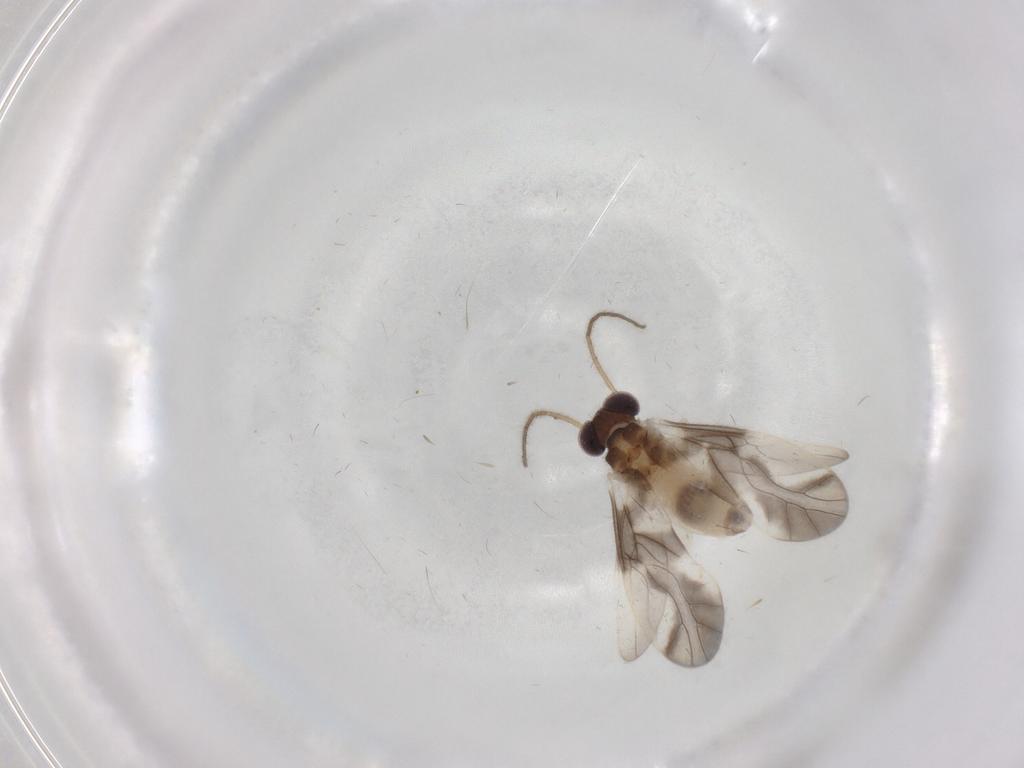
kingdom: Animalia
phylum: Arthropoda
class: Insecta
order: Psocodea
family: Caeciliusidae
